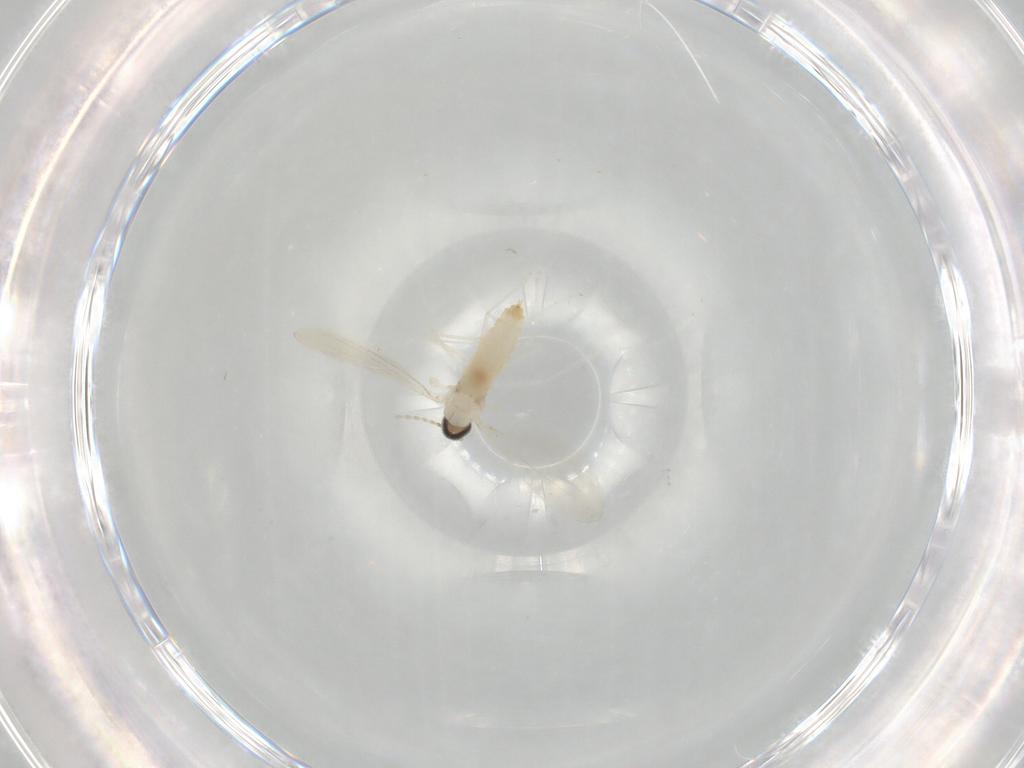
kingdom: Animalia
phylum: Arthropoda
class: Insecta
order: Diptera
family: Cecidomyiidae
